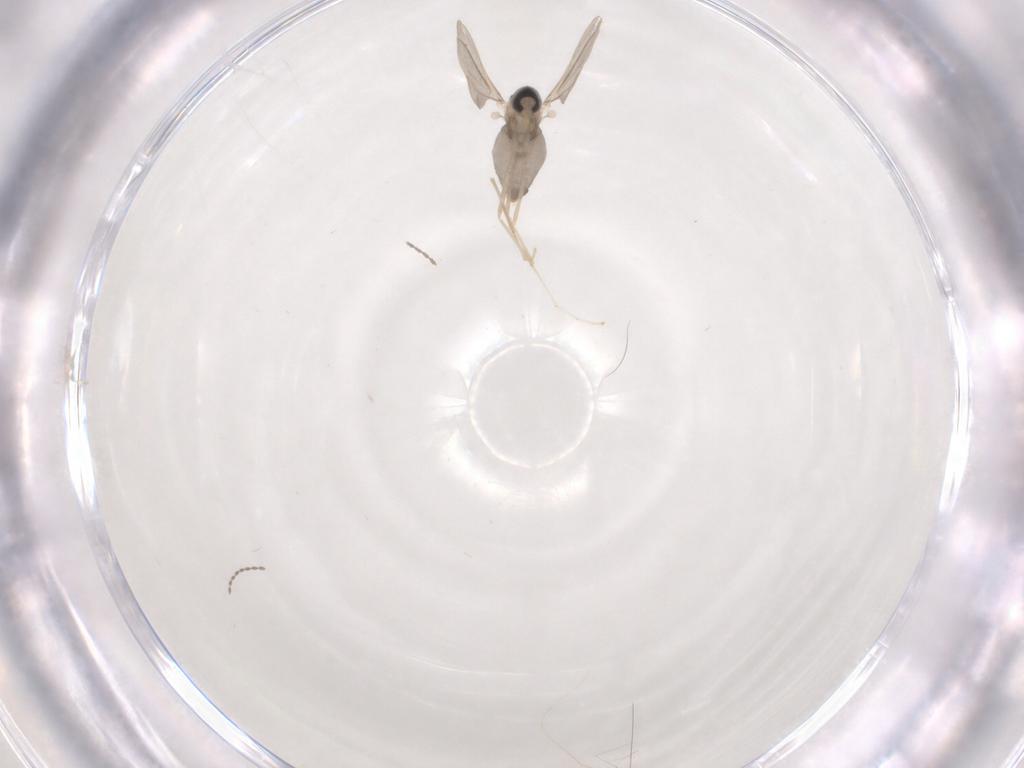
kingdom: Animalia
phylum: Arthropoda
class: Insecta
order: Diptera
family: Cecidomyiidae
